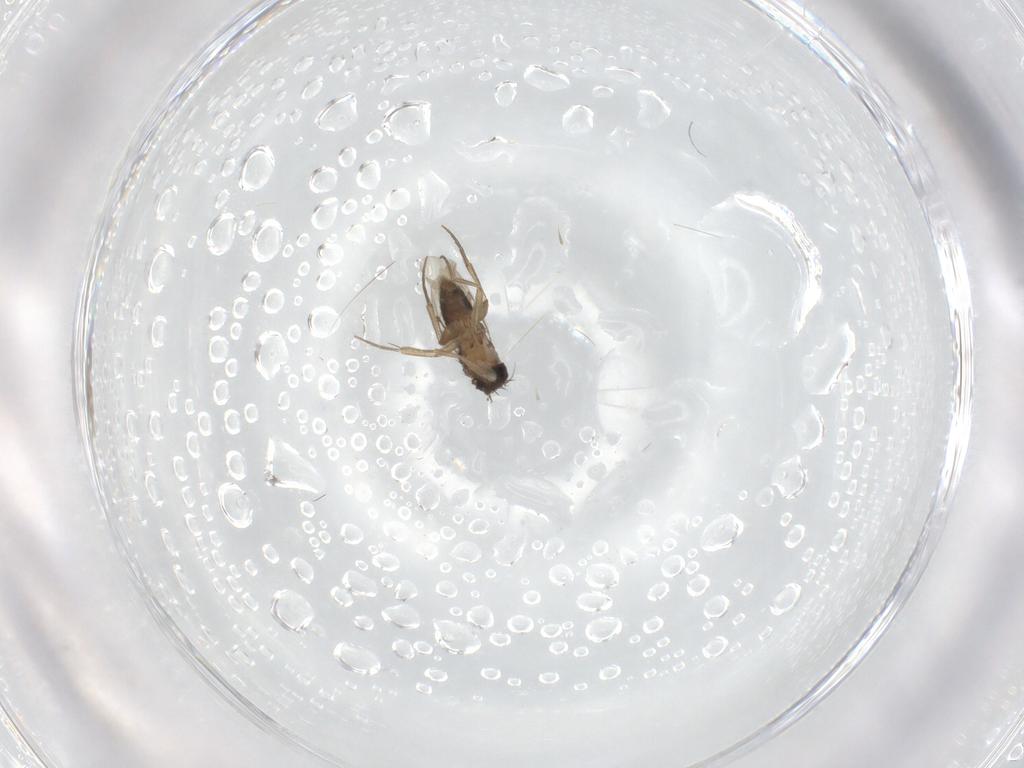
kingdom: Animalia
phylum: Arthropoda
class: Insecta
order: Diptera
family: Phoridae
